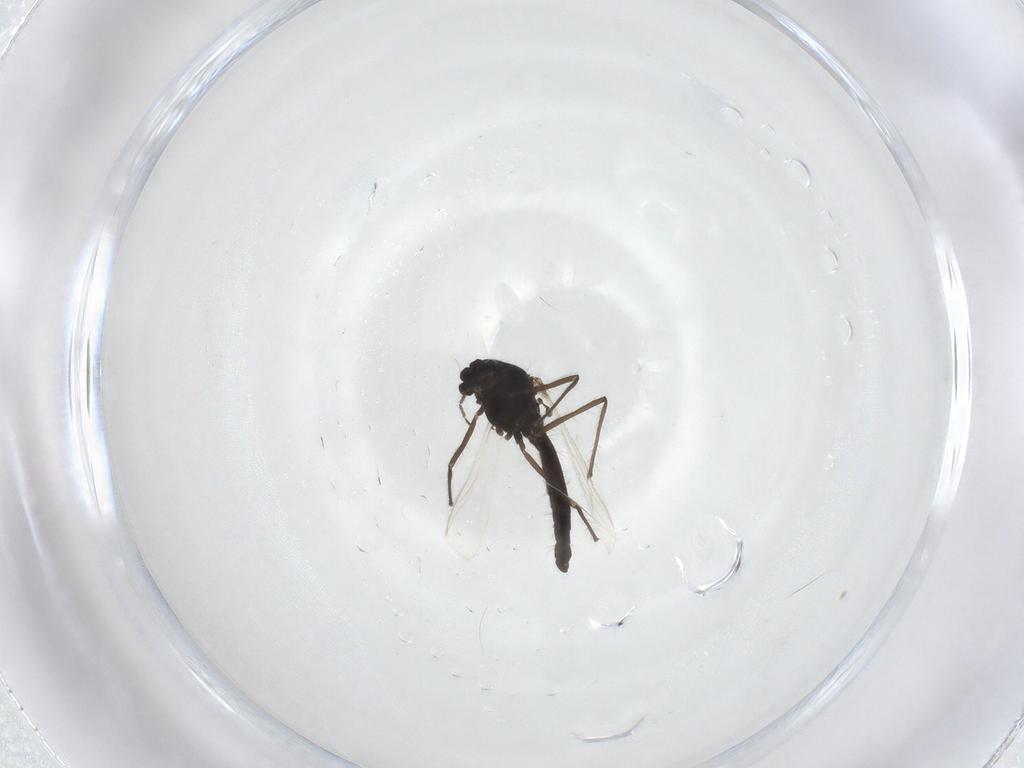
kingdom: Animalia
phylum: Arthropoda
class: Insecta
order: Diptera
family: Chironomidae
